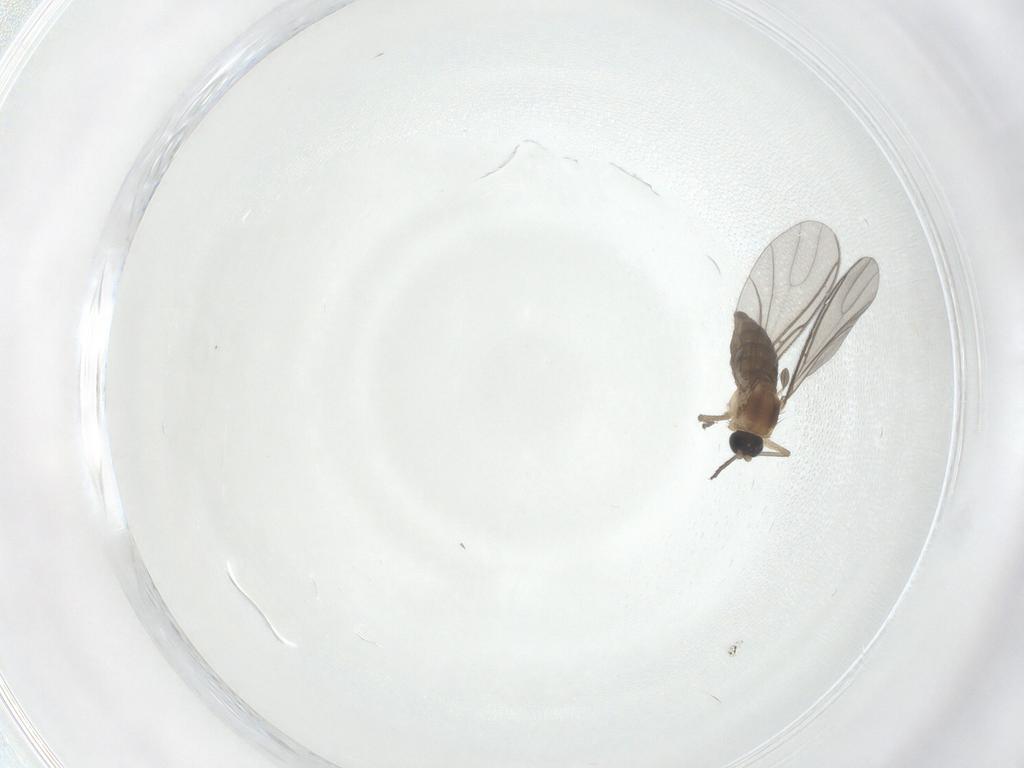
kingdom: Animalia
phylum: Arthropoda
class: Insecta
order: Diptera
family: Sciaridae
